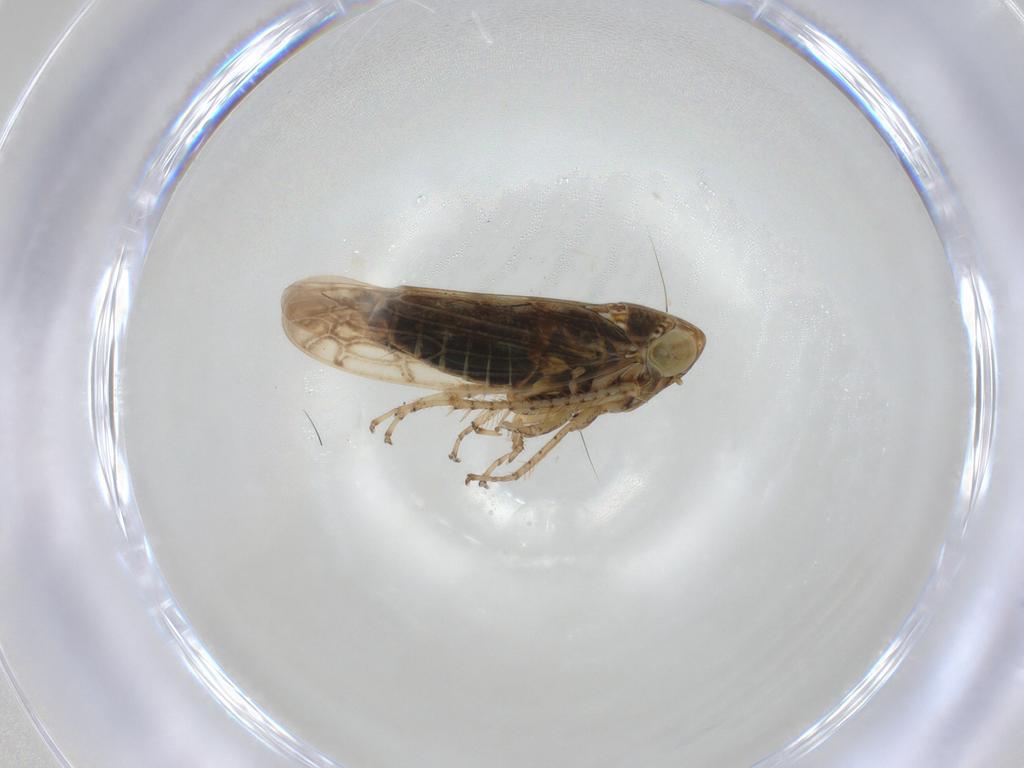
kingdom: Animalia
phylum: Arthropoda
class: Insecta
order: Hemiptera
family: Cicadellidae
